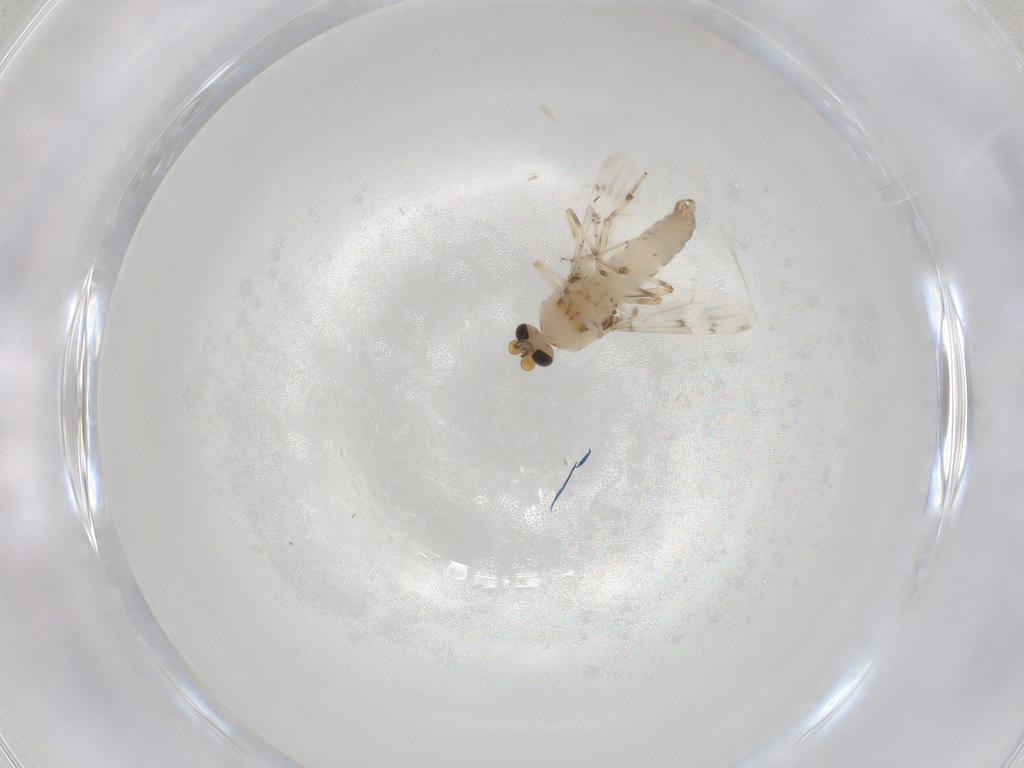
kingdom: Animalia
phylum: Arthropoda
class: Insecta
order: Diptera
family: Ceratopogonidae
